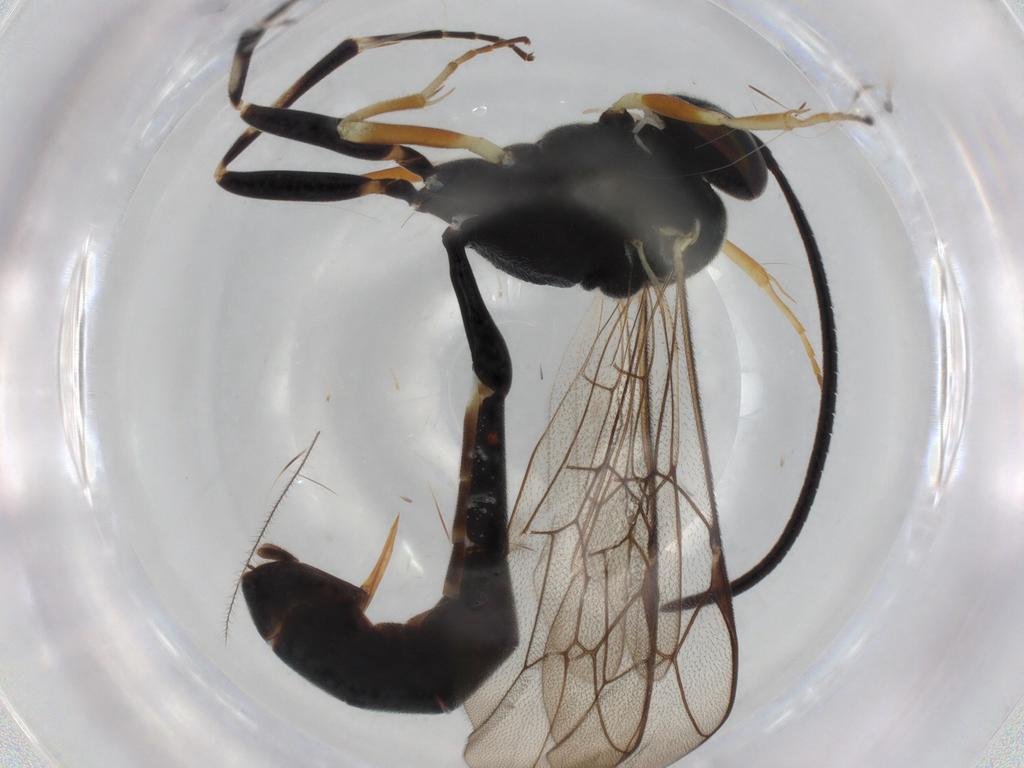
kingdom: Animalia
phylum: Arthropoda
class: Insecta
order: Hymenoptera
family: Ichneumonidae
